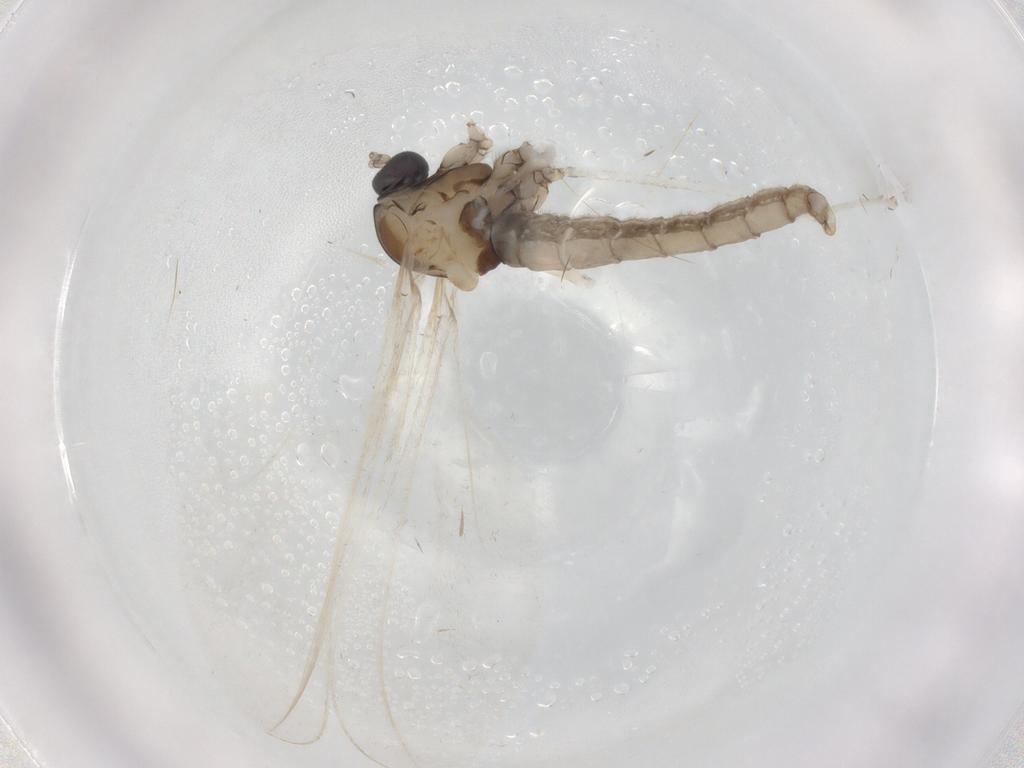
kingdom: Animalia
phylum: Arthropoda
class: Insecta
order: Diptera
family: Cecidomyiidae
